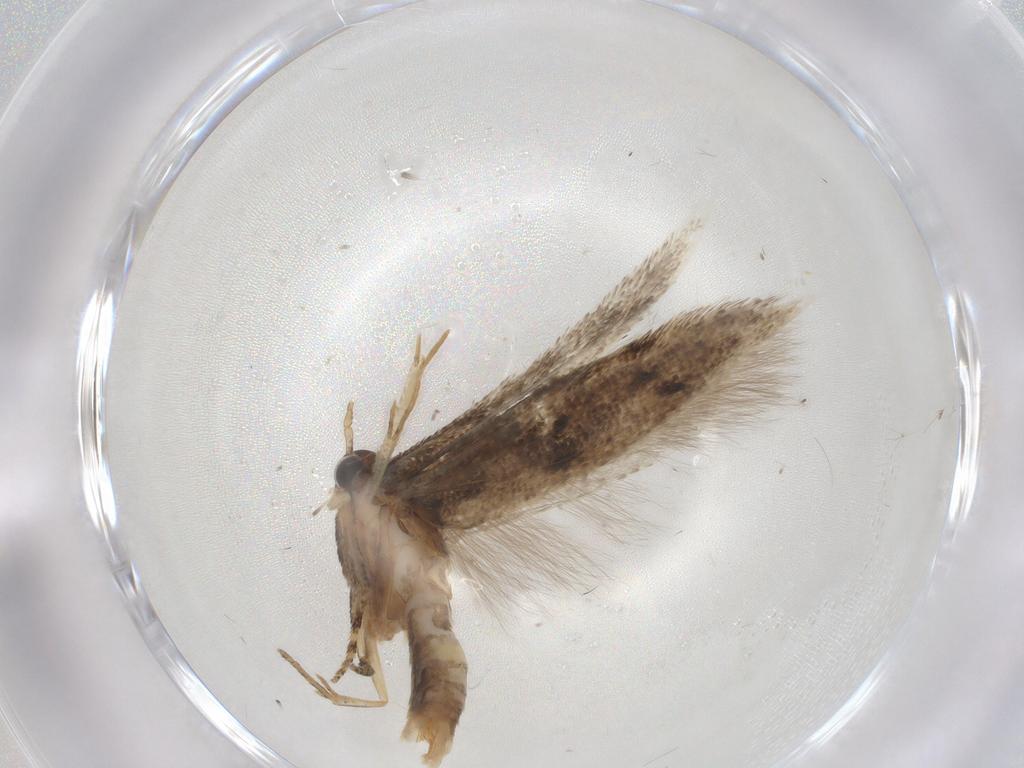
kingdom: Animalia
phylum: Arthropoda
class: Insecta
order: Lepidoptera
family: Gelechiidae
